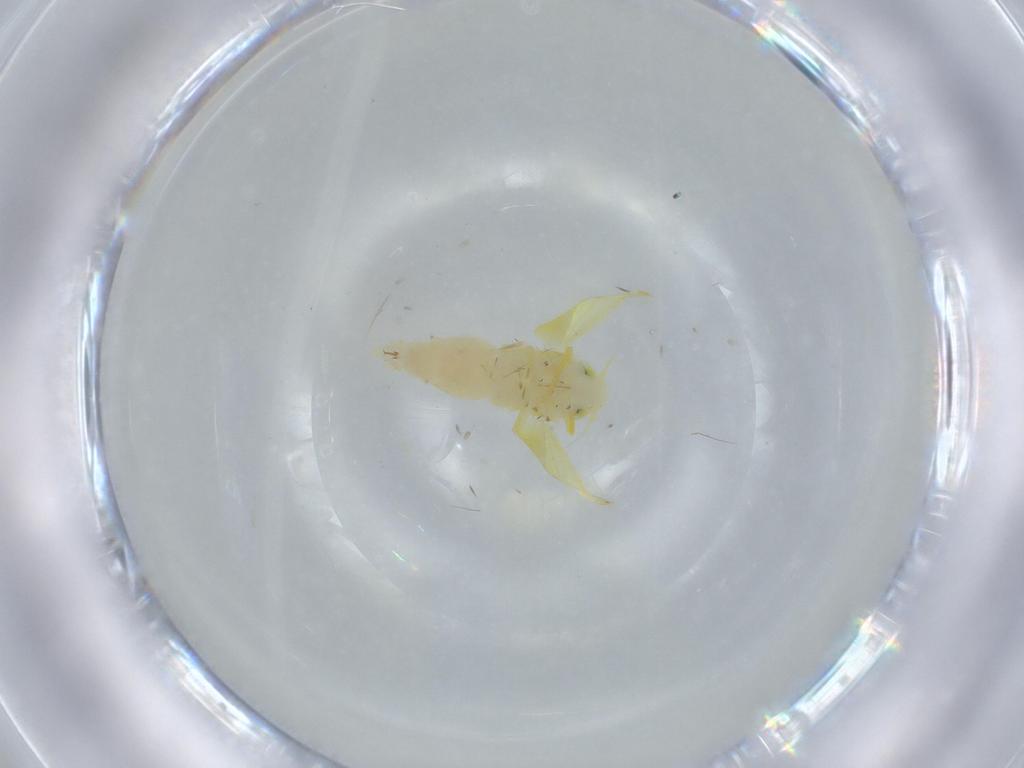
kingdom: Animalia
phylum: Arthropoda
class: Insecta
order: Hemiptera
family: Cicadellidae
